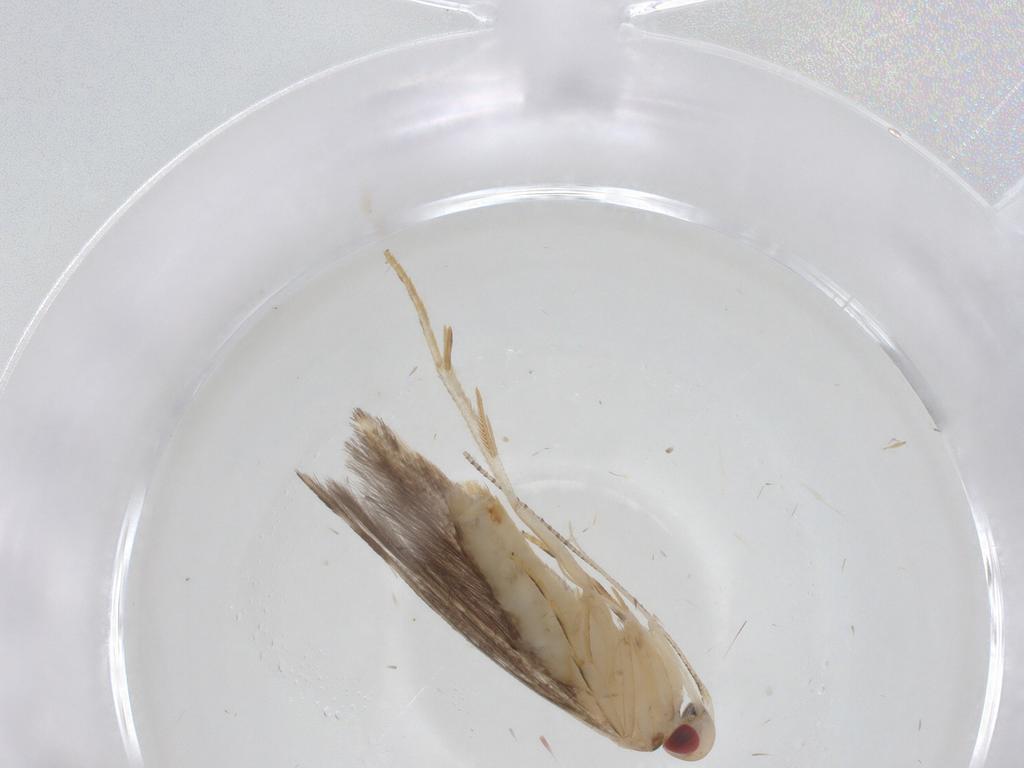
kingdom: Animalia
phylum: Arthropoda
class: Insecta
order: Lepidoptera
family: Cosmopterigidae
